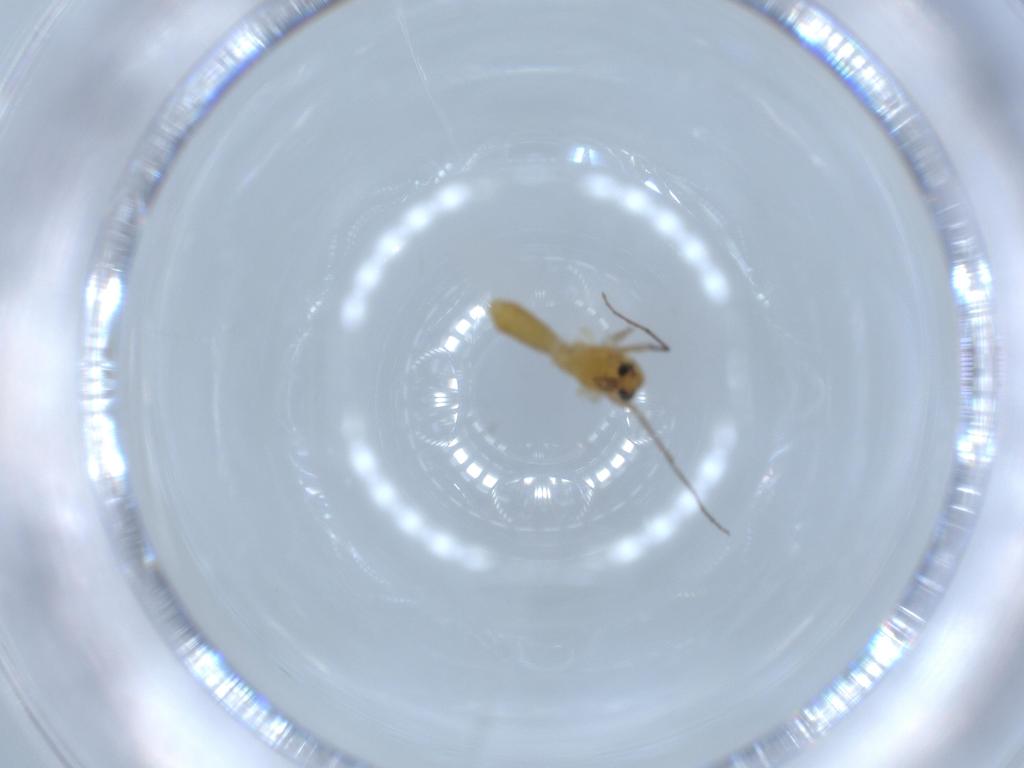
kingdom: Animalia
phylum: Arthropoda
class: Insecta
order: Diptera
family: Chironomidae
